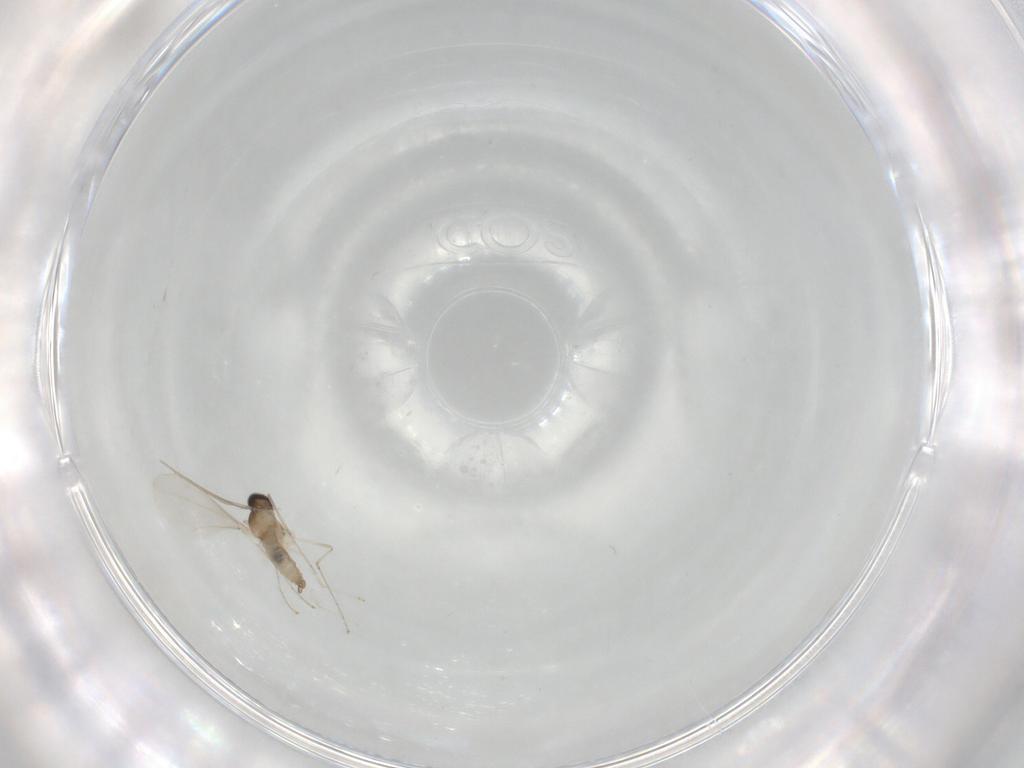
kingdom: Animalia
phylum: Arthropoda
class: Insecta
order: Diptera
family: Cecidomyiidae
